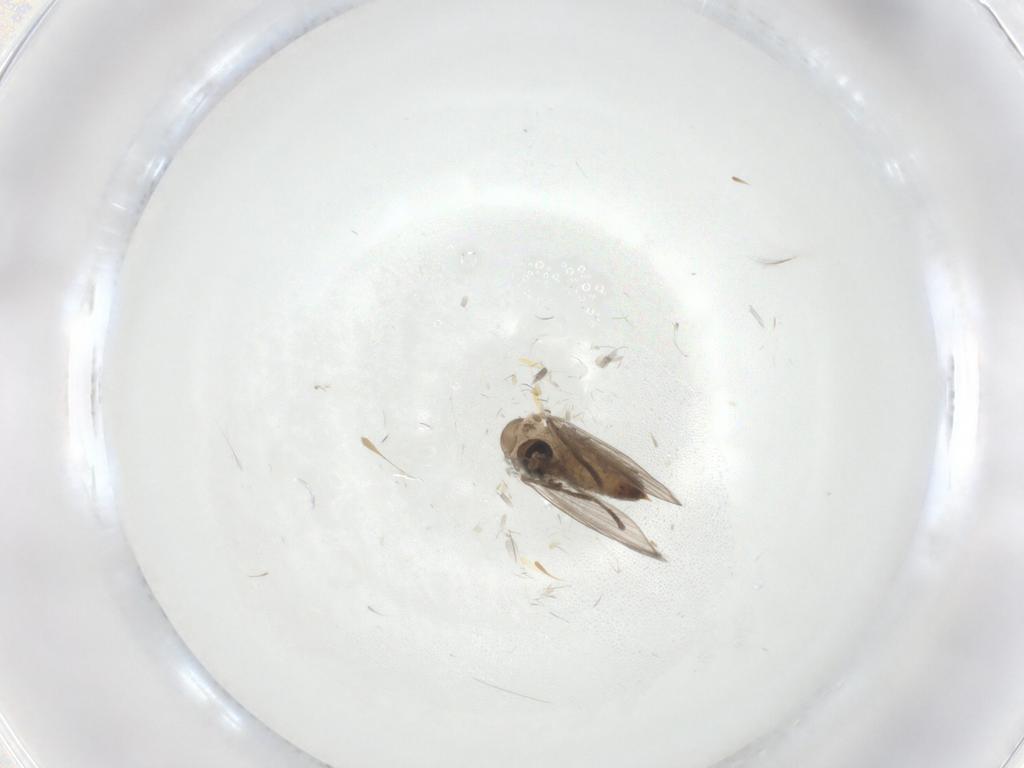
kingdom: Animalia
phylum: Arthropoda
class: Insecta
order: Diptera
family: Psychodidae
